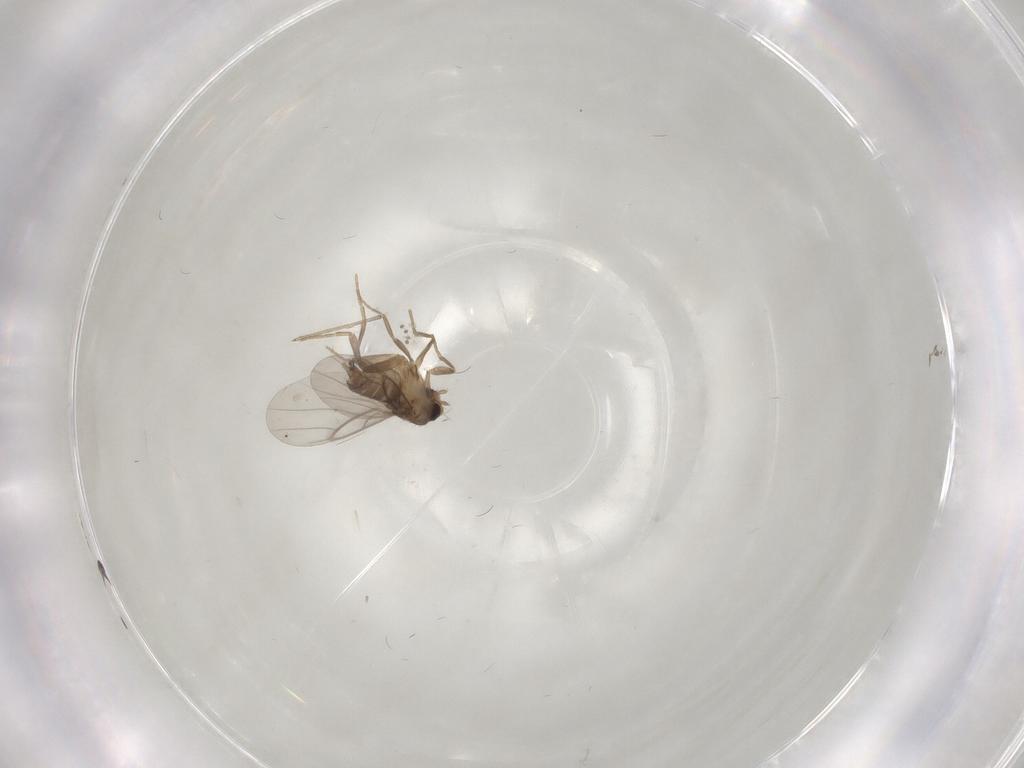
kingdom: Animalia
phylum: Arthropoda
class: Insecta
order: Diptera
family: Psychodidae
